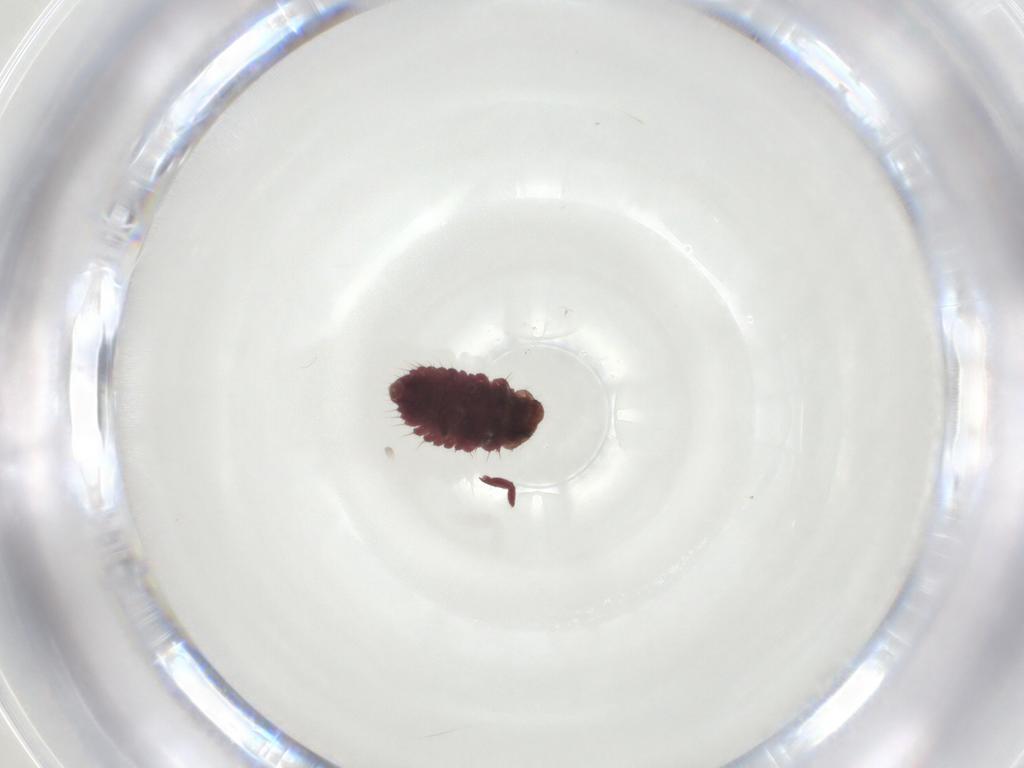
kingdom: Animalia
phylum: Arthropoda
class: Insecta
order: Coleoptera
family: Coccinellidae
